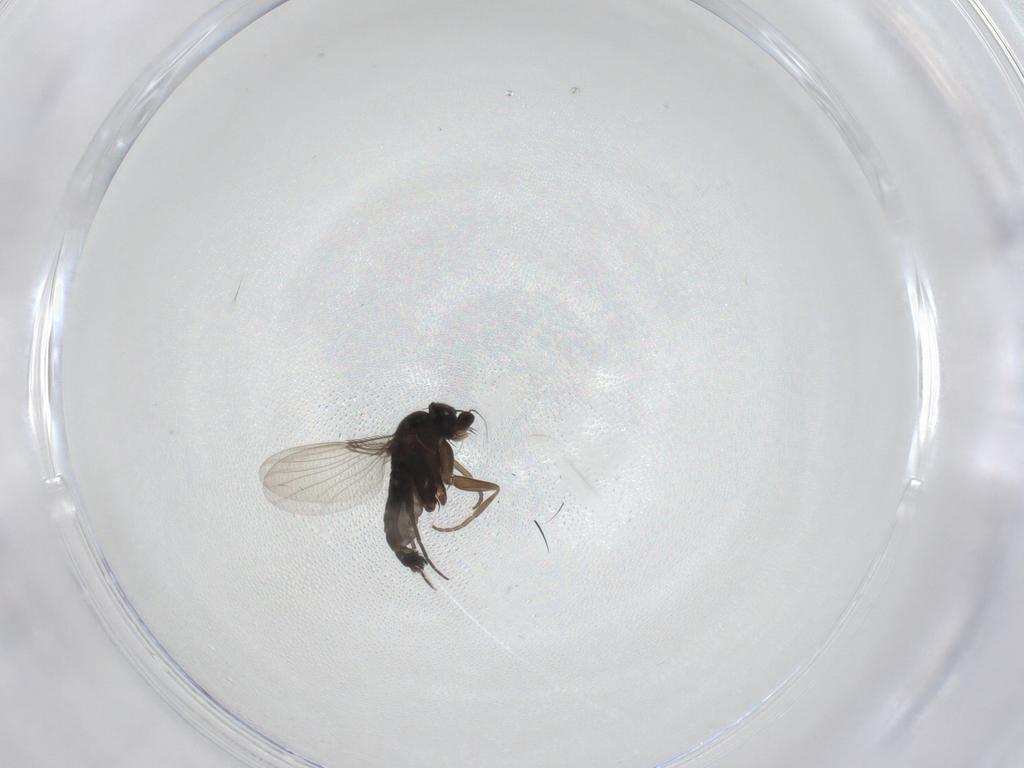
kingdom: Animalia
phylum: Arthropoda
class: Insecta
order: Diptera
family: Phoridae
